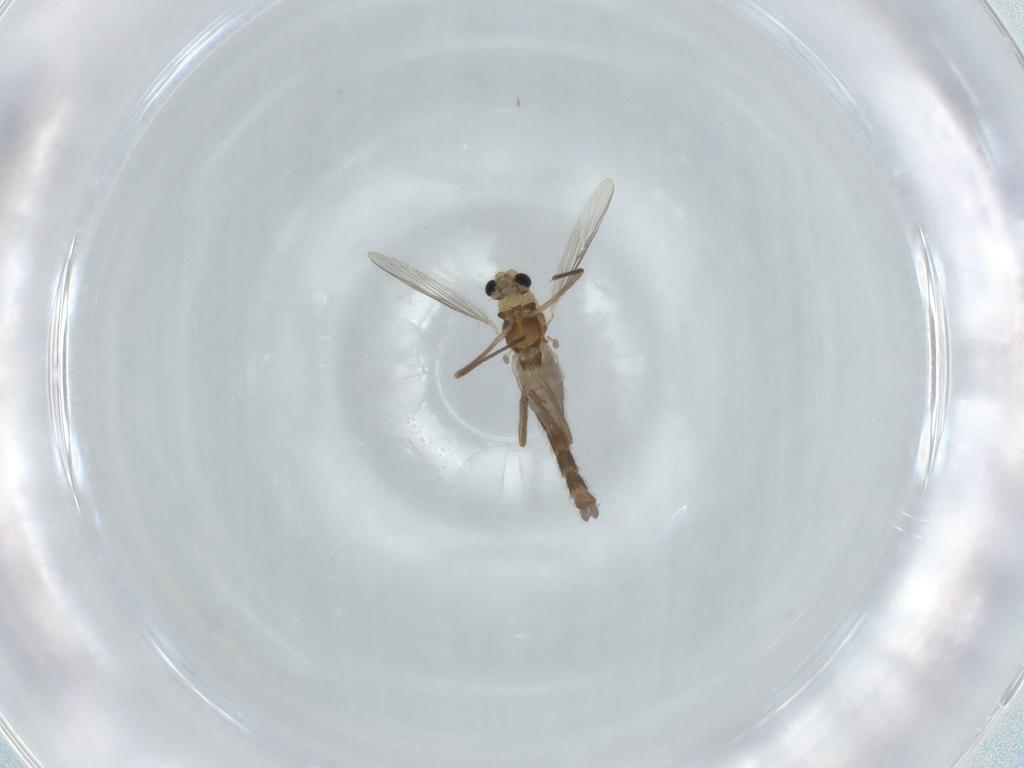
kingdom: Animalia
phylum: Arthropoda
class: Insecta
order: Diptera
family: Chironomidae
